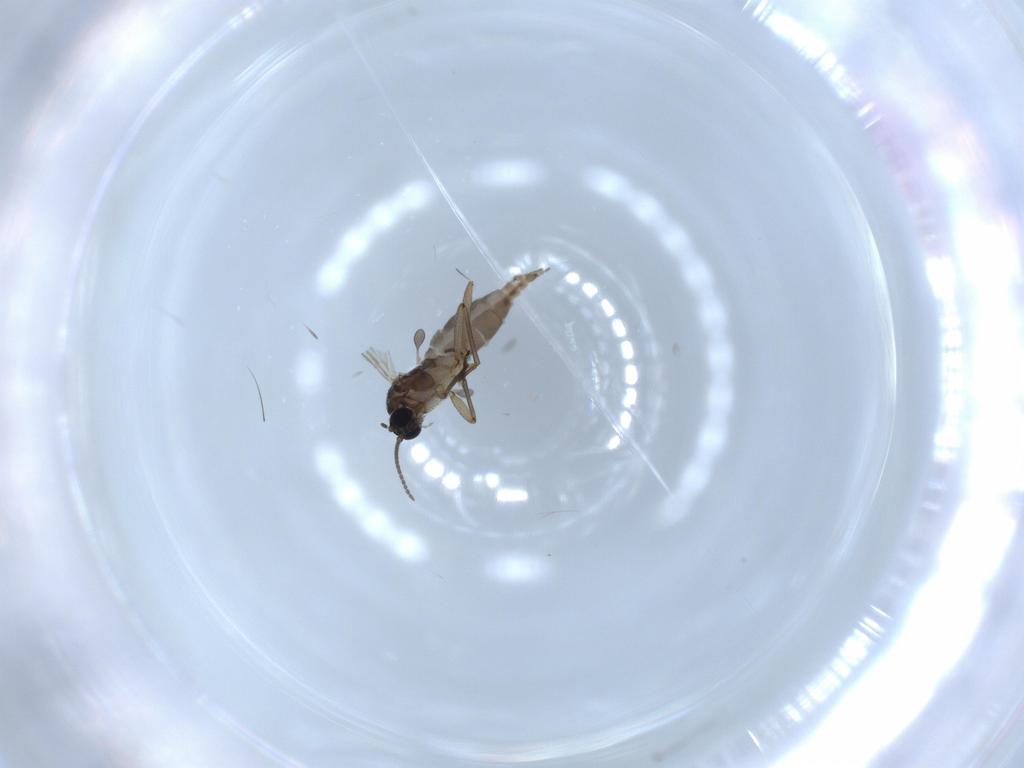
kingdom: Animalia
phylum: Arthropoda
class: Insecta
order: Diptera
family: Sciaridae
